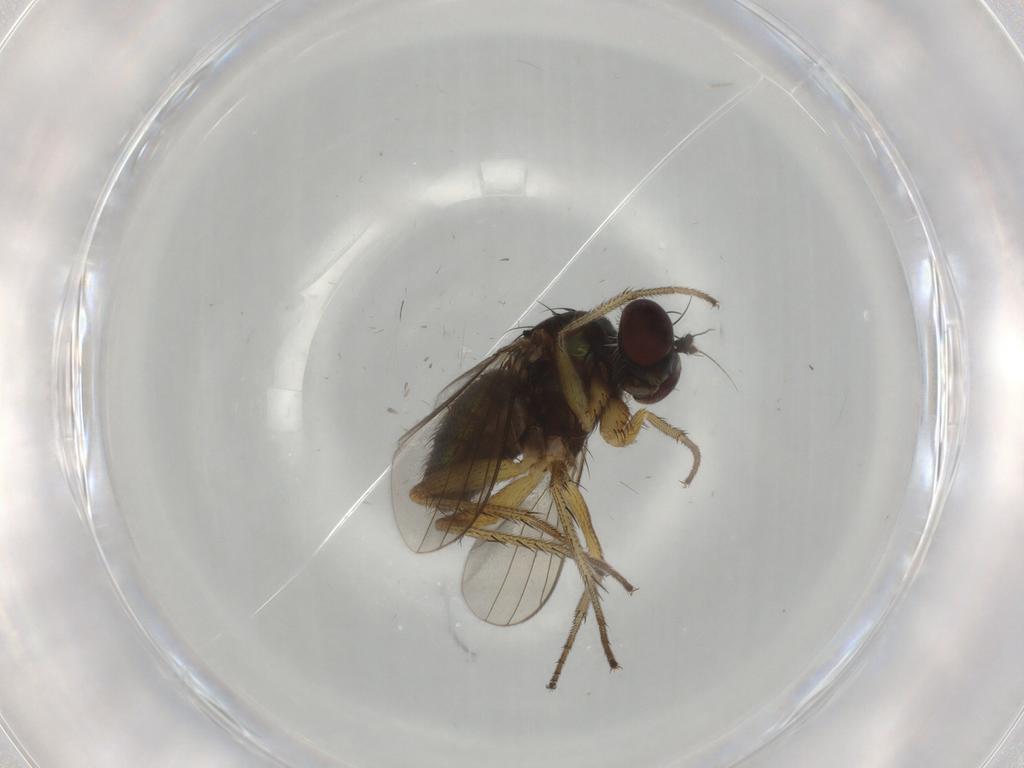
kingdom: Animalia
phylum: Arthropoda
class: Insecta
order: Diptera
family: Dolichopodidae
